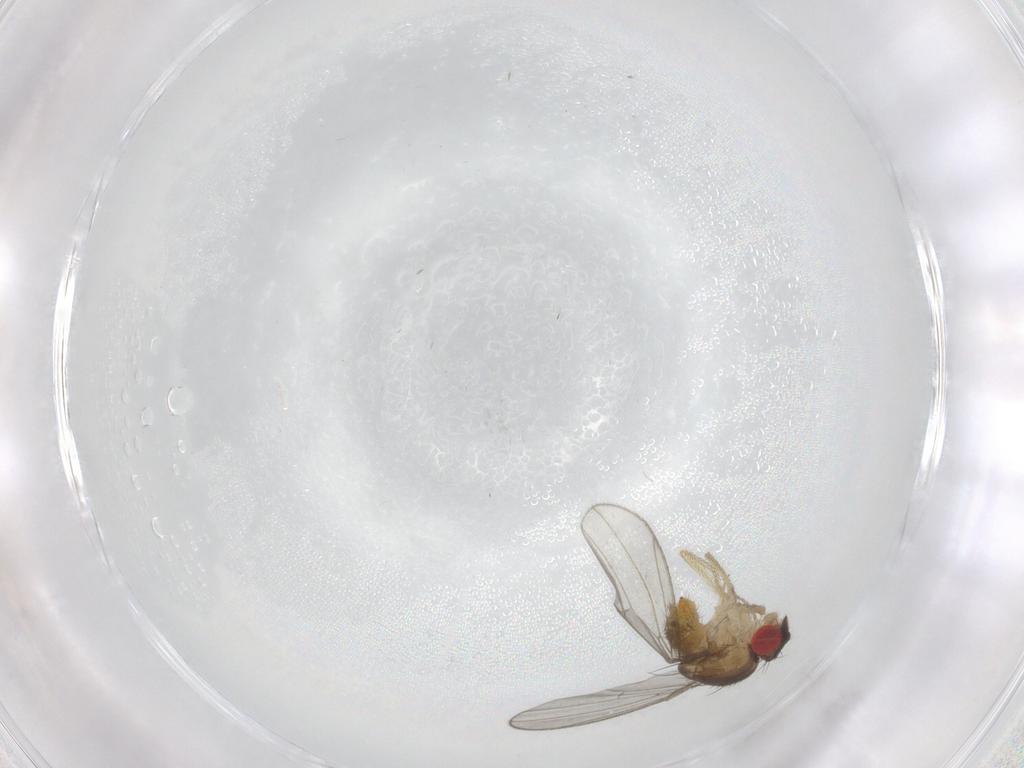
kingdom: Animalia
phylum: Arthropoda
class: Insecta
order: Diptera
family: Drosophilidae
